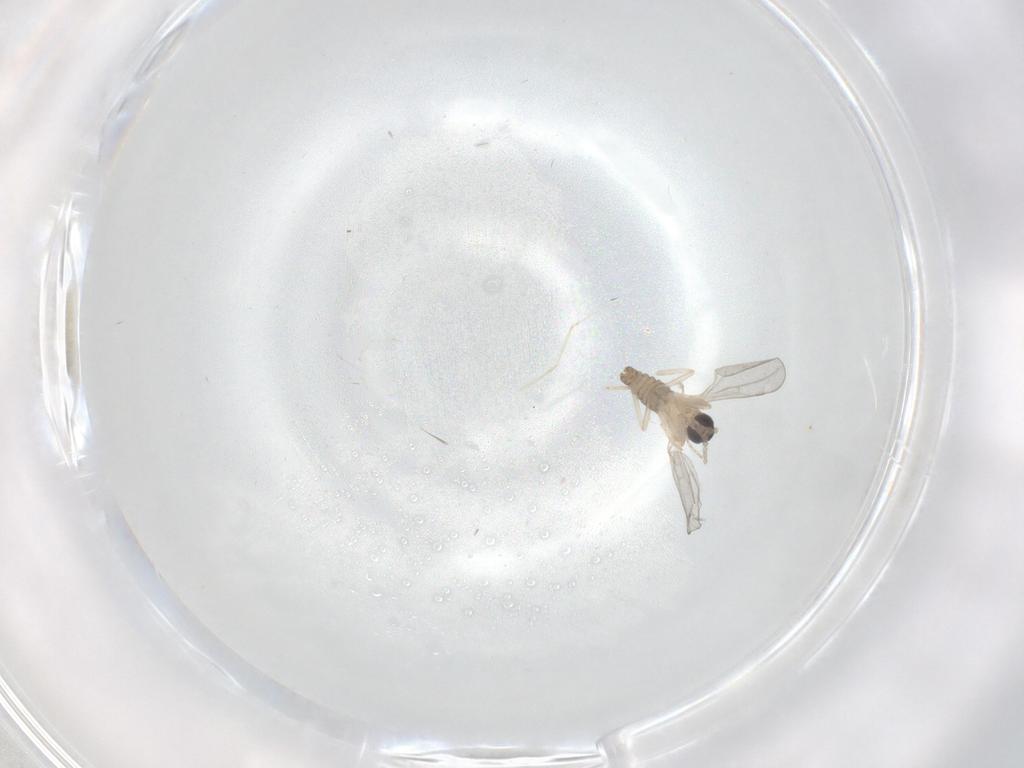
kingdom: Animalia
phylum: Arthropoda
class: Insecta
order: Diptera
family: Cecidomyiidae
